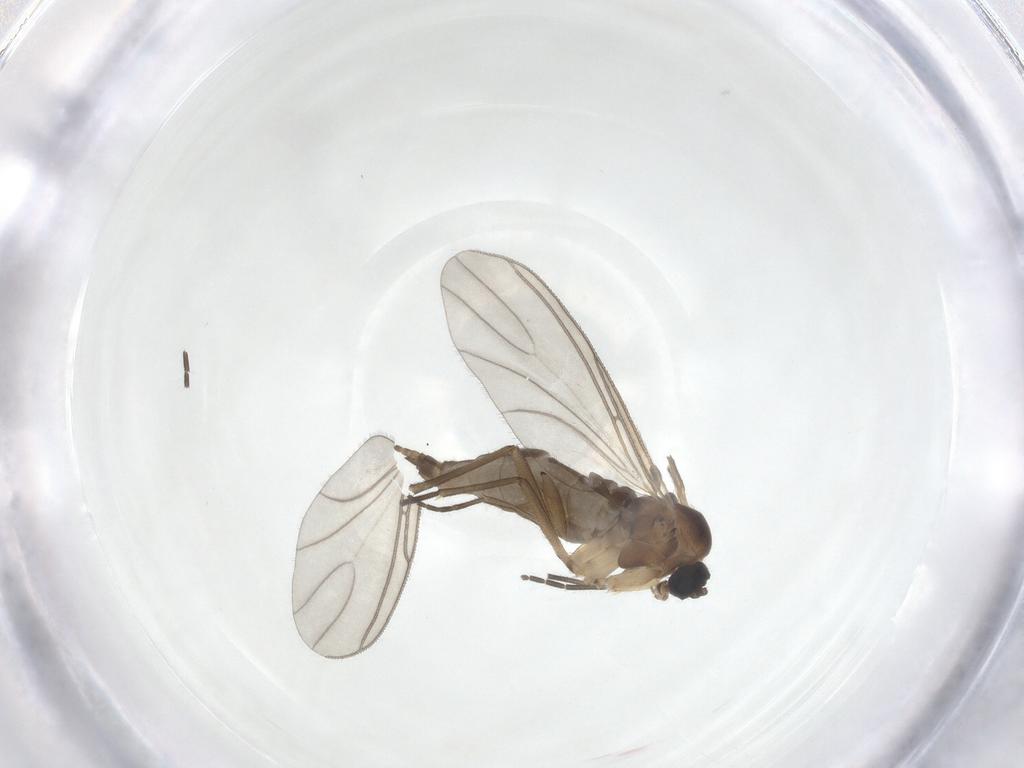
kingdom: Animalia
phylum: Arthropoda
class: Insecta
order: Diptera
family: Sciaridae
